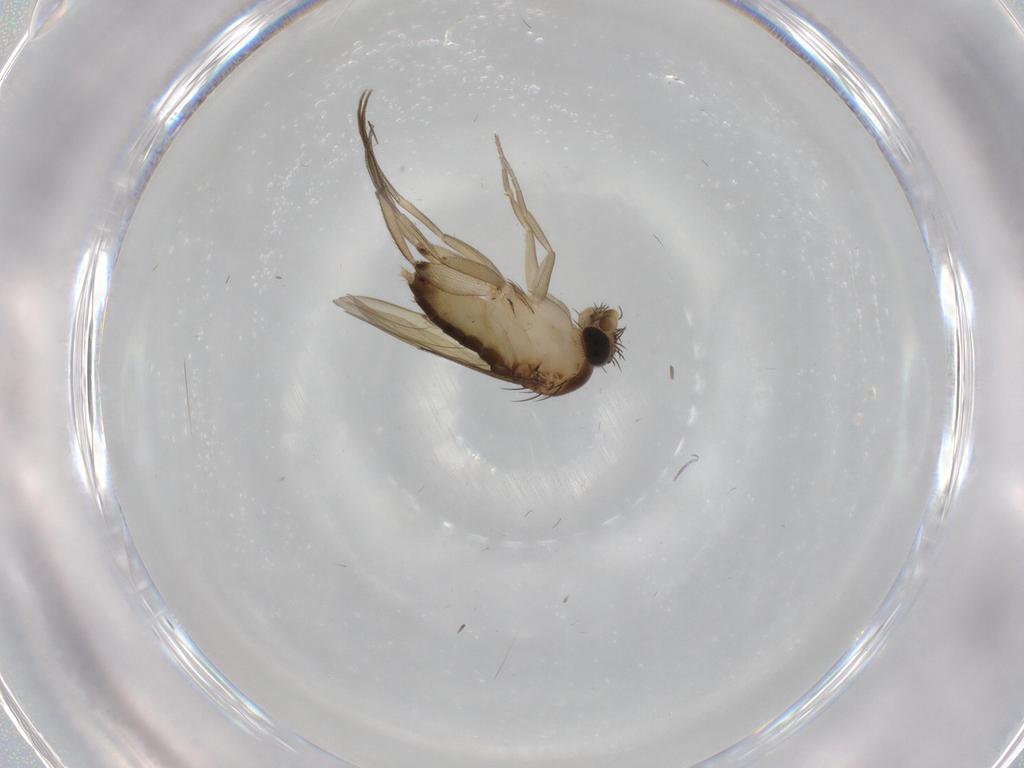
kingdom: Animalia
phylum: Arthropoda
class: Insecta
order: Diptera
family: Phoridae
